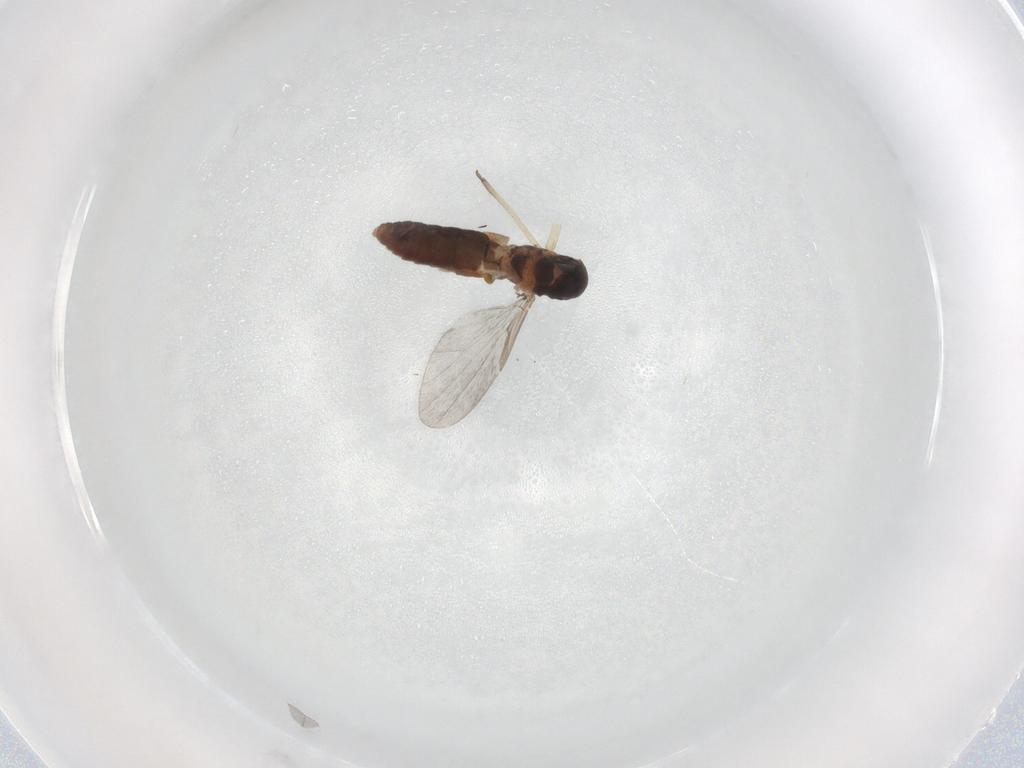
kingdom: Animalia
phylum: Arthropoda
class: Insecta
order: Diptera
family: Ceratopogonidae
